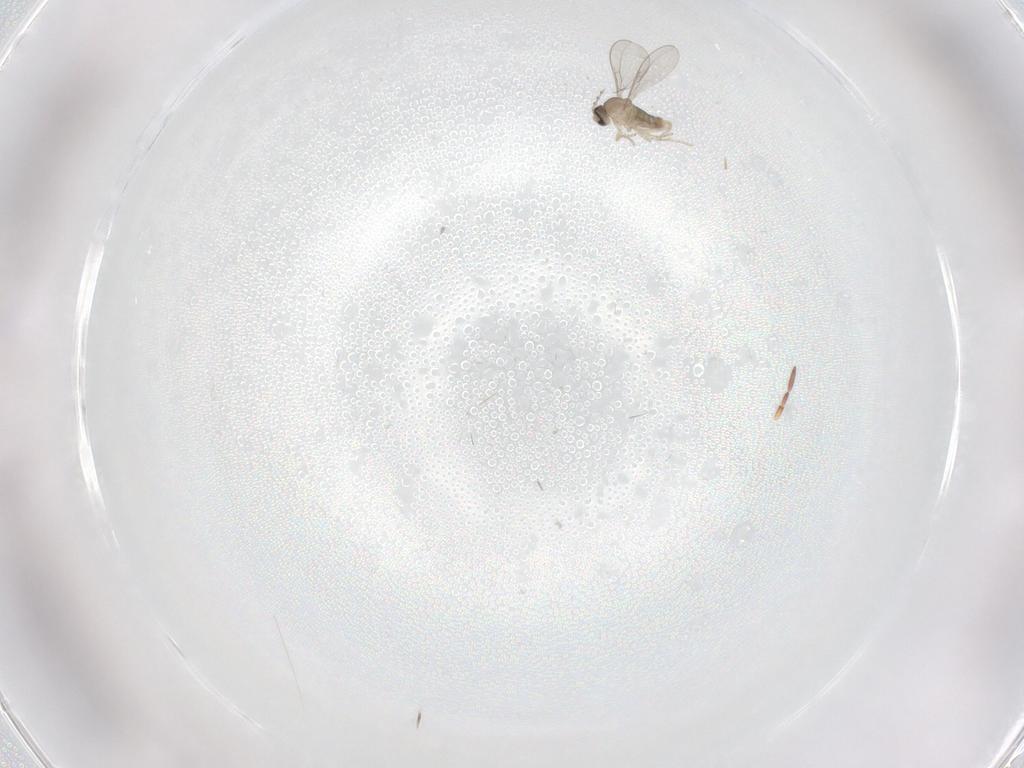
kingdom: Animalia
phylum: Arthropoda
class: Insecta
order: Diptera
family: Cecidomyiidae
